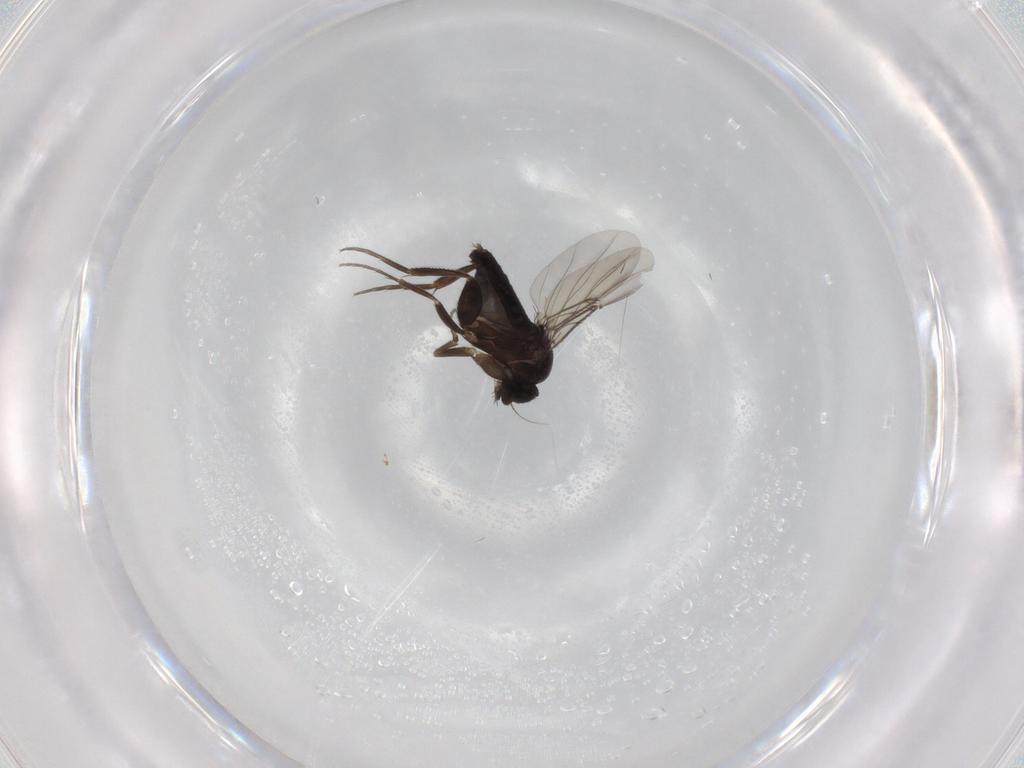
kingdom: Animalia
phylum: Arthropoda
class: Insecta
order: Diptera
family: Phoridae
